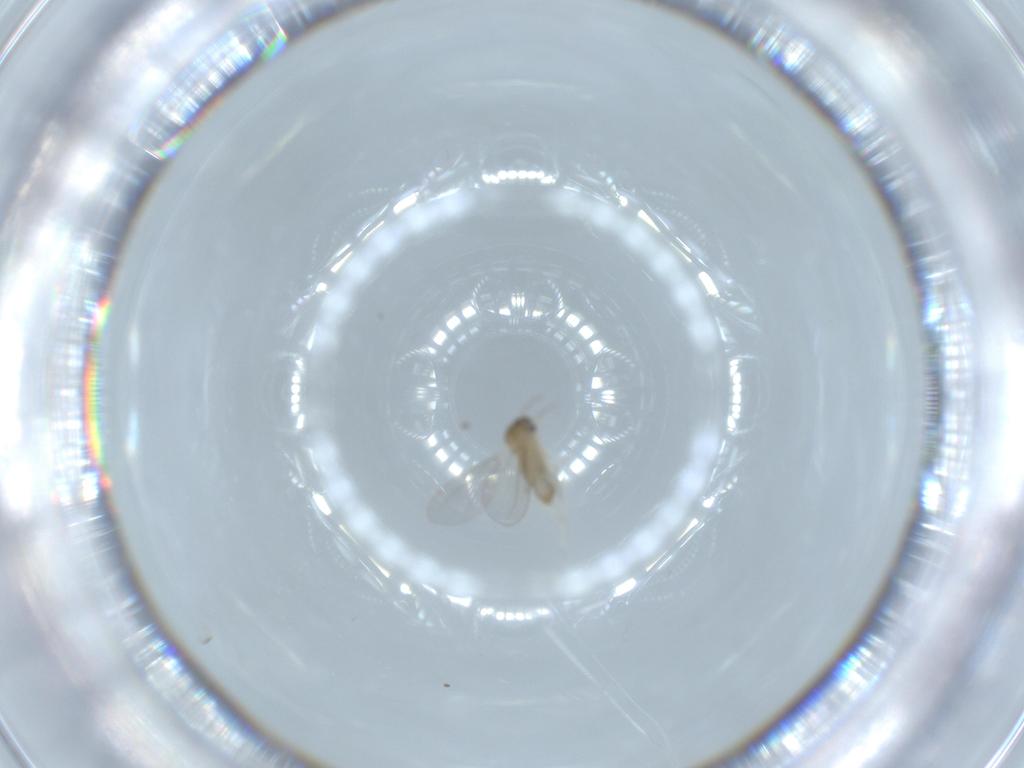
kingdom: Animalia
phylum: Arthropoda
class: Insecta
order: Diptera
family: Cecidomyiidae
